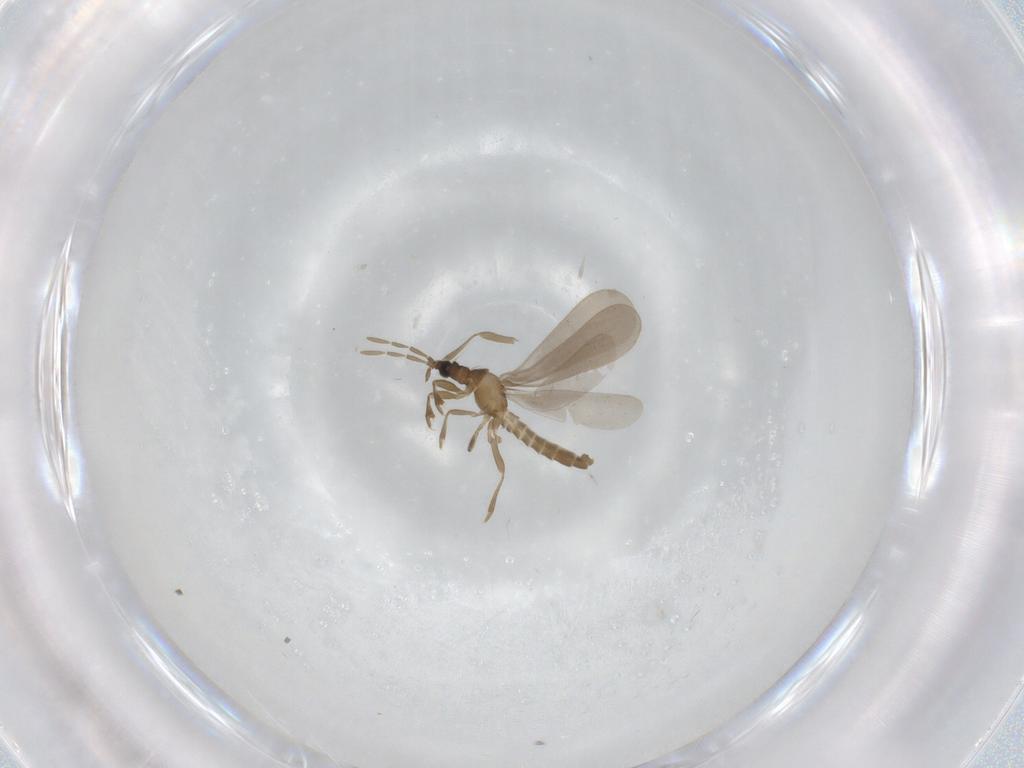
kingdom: Animalia
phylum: Arthropoda
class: Insecta
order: Hemiptera
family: Enicocephalidae
